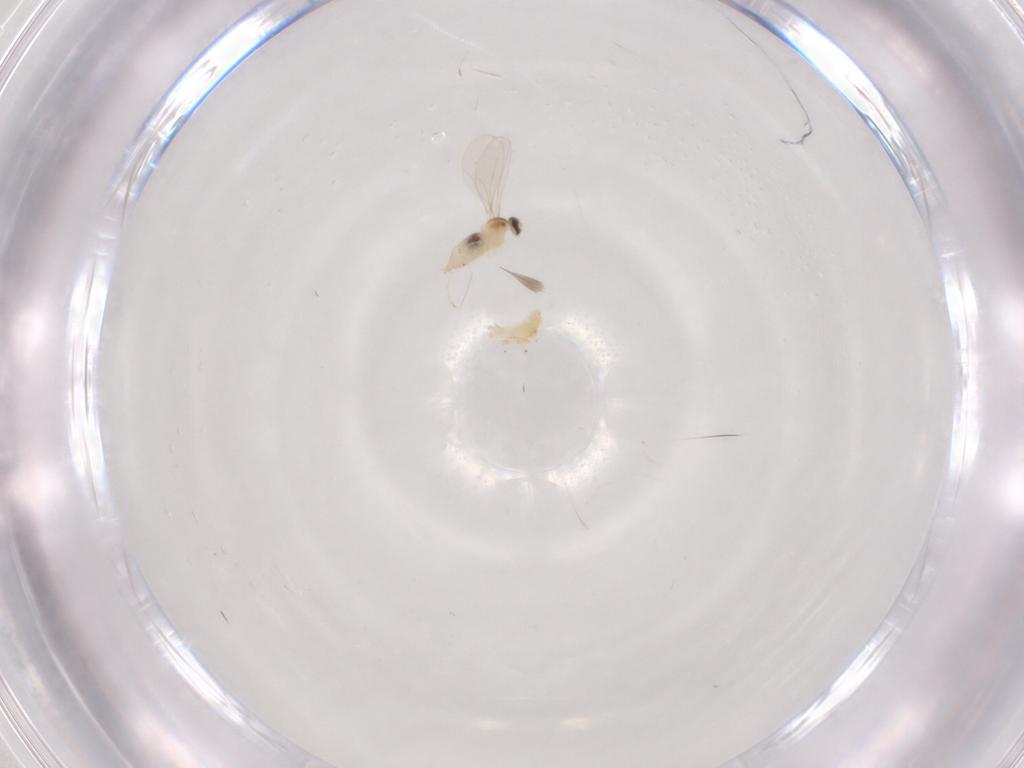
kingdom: Animalia
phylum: Arthropoda
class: Insecta
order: Diptera
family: Cecidomyiidae
